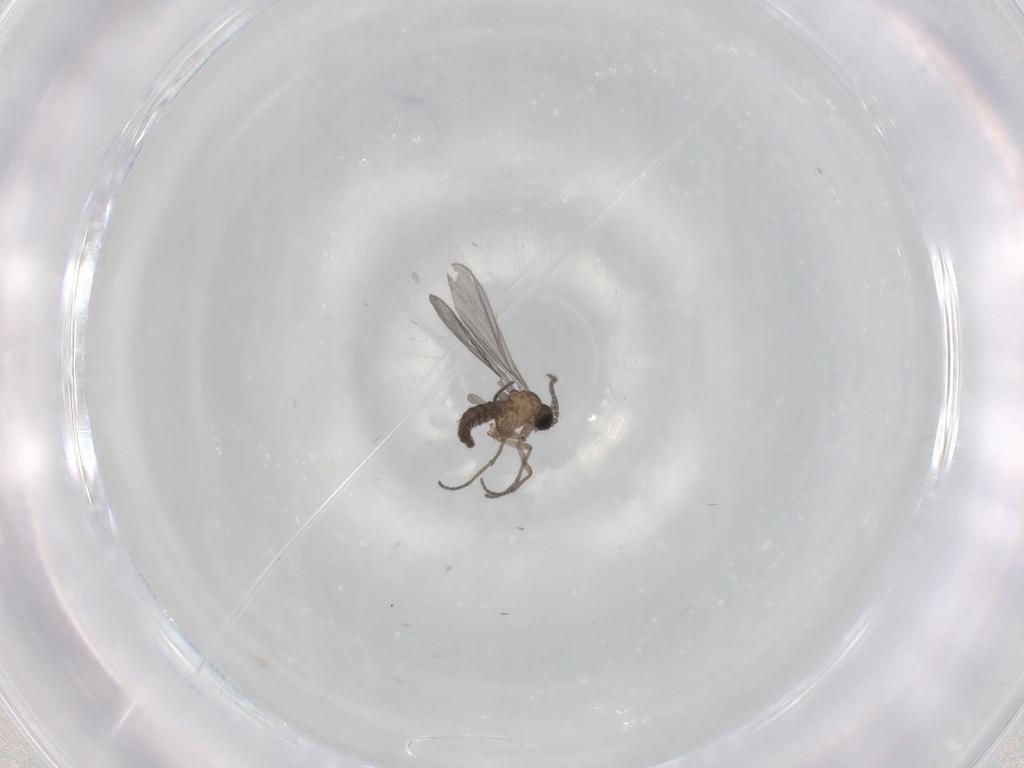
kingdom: Animalia
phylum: Arthropoda
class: Insecta
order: Diptera
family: Sciaridae
